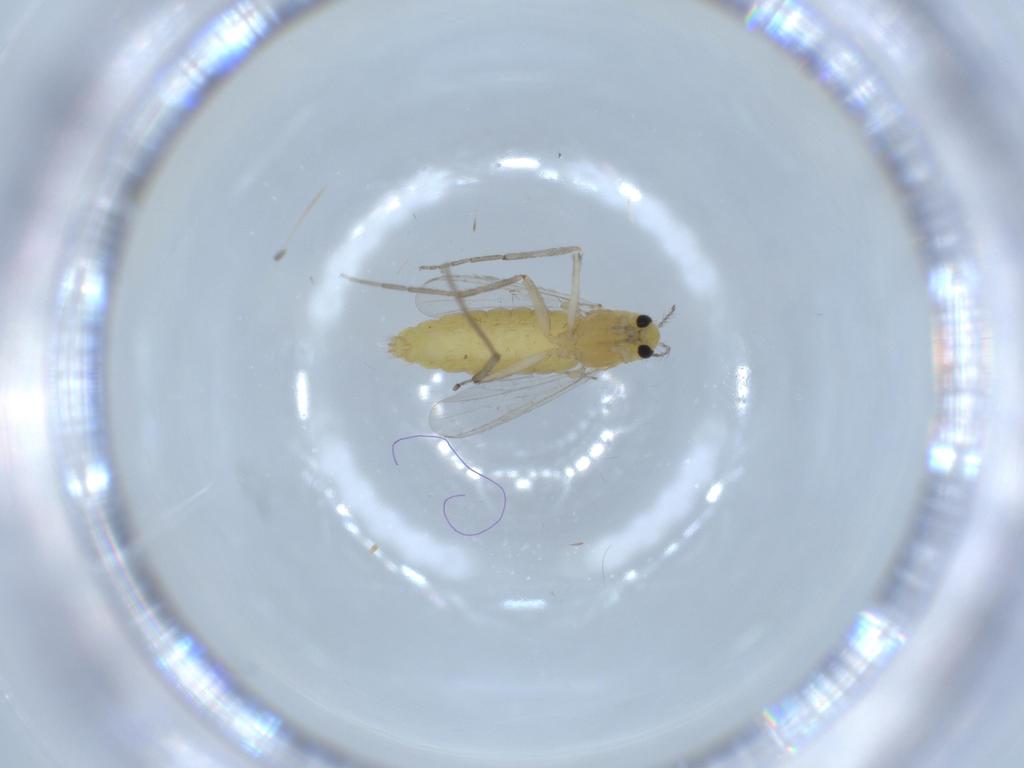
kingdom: Animalia
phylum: Arthropoda
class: Insecta
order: Diptera
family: Chironomidae
